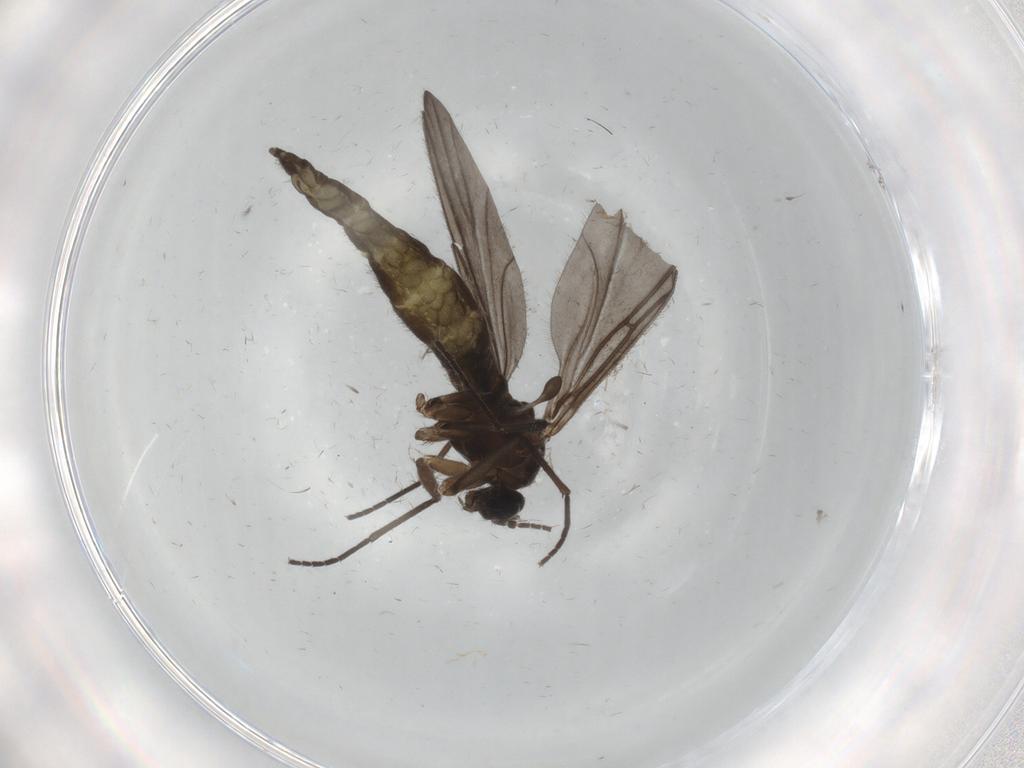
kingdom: Animalia
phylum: Arthropoda
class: Insecta
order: Diptera
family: Sciaridae
